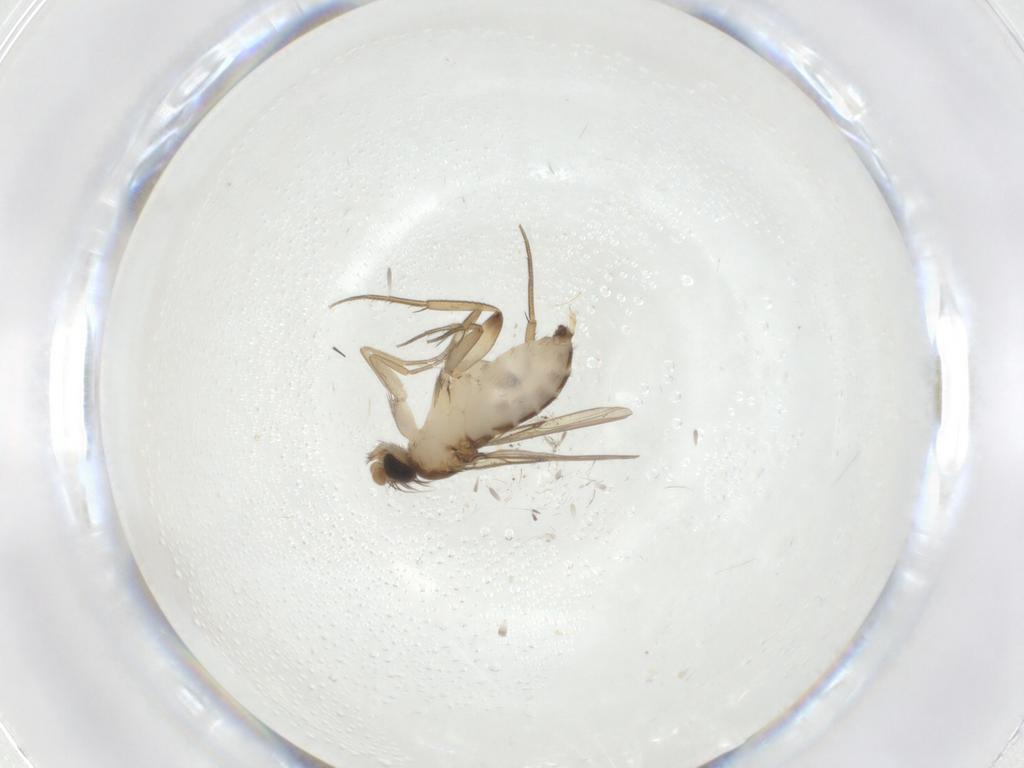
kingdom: Animalia
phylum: Arthropoda
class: Insecta
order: Diptera
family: Phoridae
